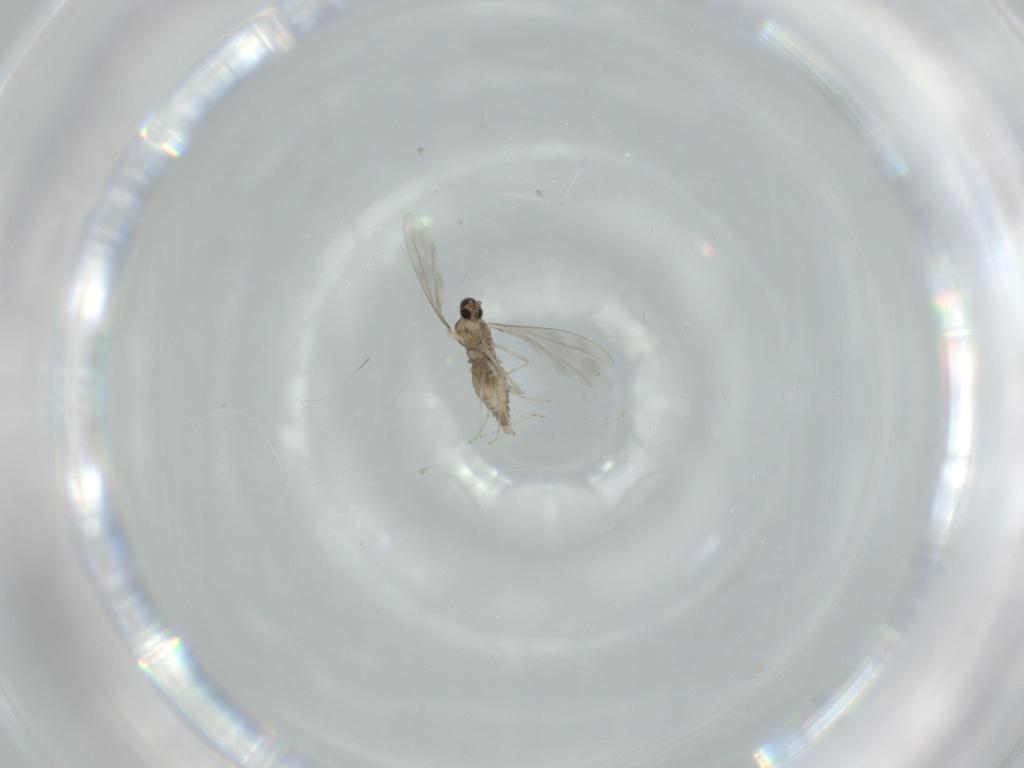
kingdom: Animalia
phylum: Arthropoda
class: Insecta
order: Diptera
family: Cecidomyiidae
